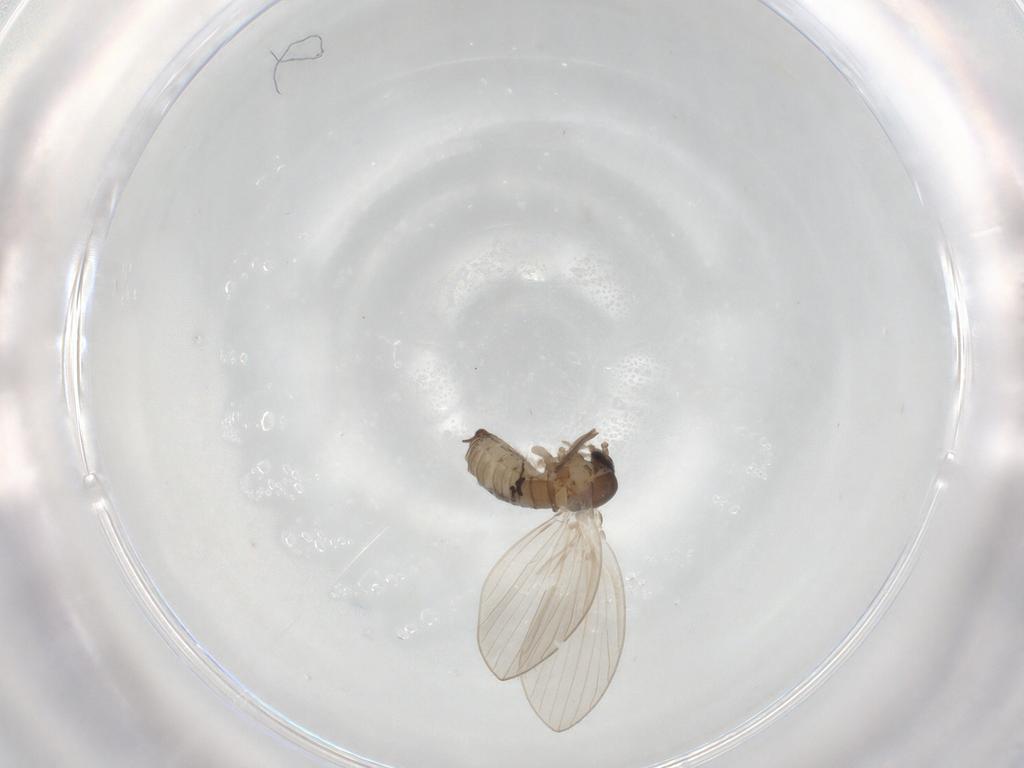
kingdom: Animalia
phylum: Arthropoda
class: Insecta
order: Diptera
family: Psychodidae
